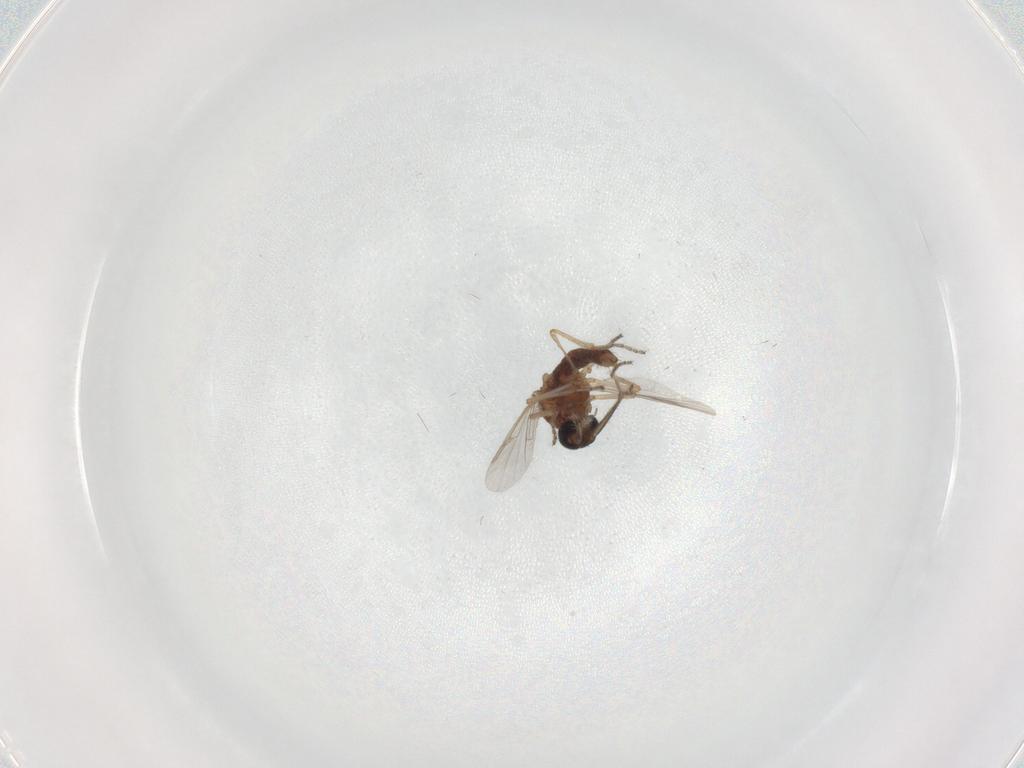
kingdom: Animalia
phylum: Arthropoda
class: Insecta
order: Diptera
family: Ceratopogonidae
